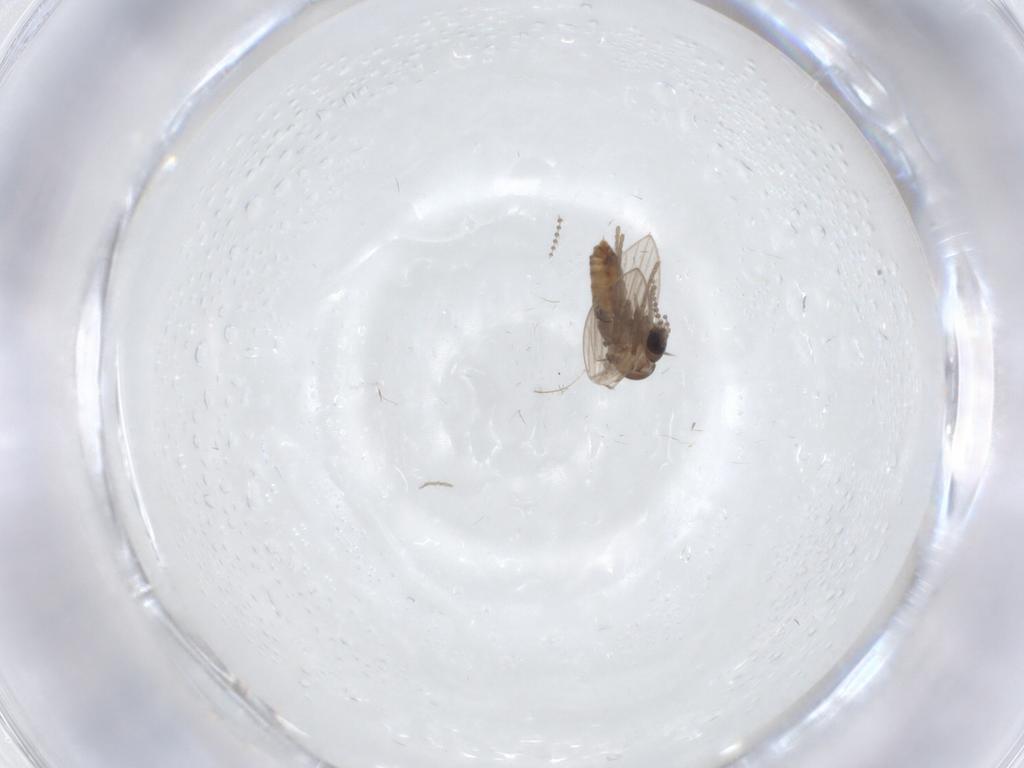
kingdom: Animalia
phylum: Arthropoda
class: Insecta
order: Diptera
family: Psychodidae
